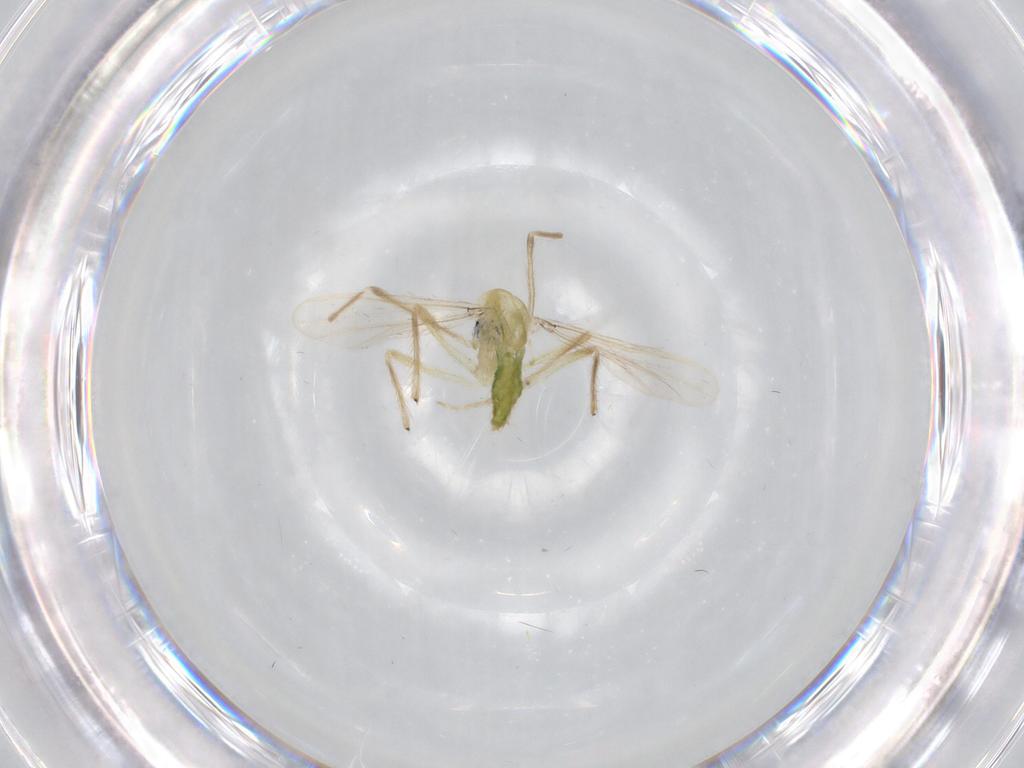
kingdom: Animalia
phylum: Arthropoda
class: Insecta
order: Diptera
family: Chironomidae
